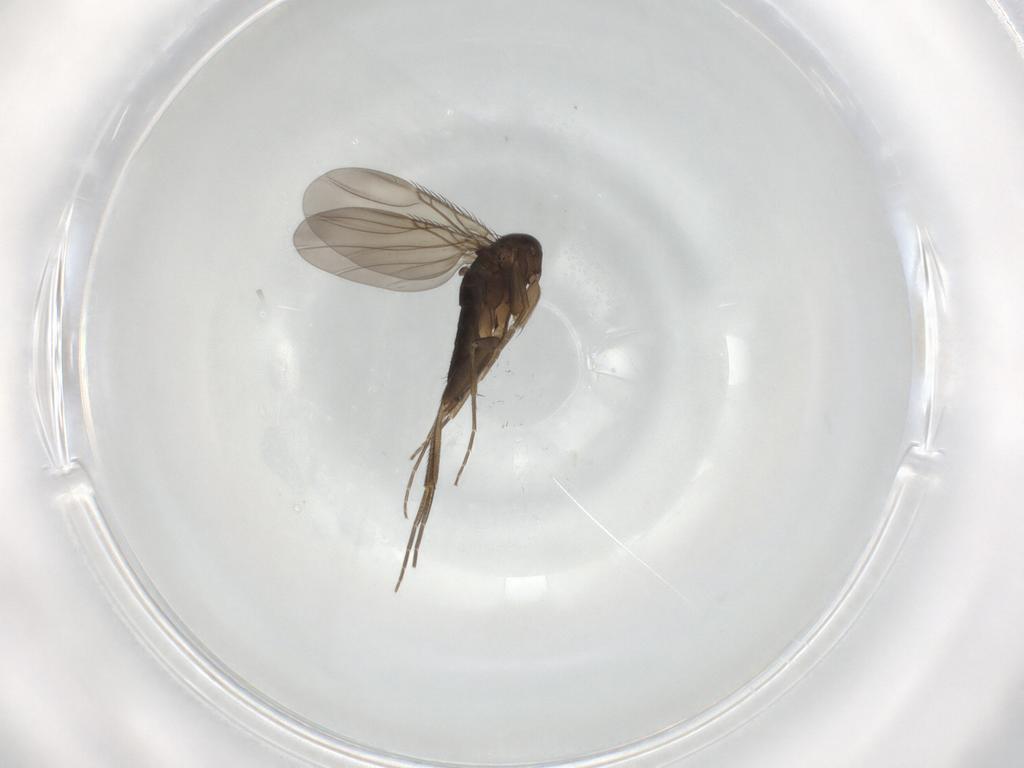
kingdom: Animalia
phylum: Arthropoda
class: Insecta
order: Diptera
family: Phoridae
